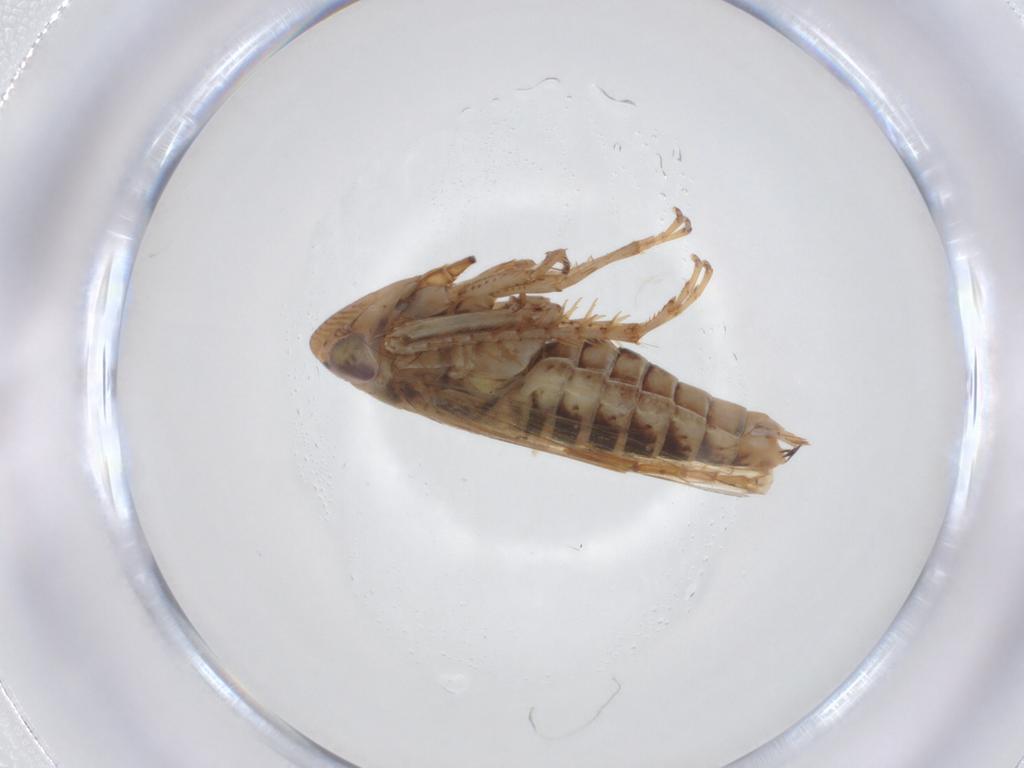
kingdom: Animalia
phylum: Arthropoda
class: Insecta
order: Hemiptera
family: Cicadellidae
